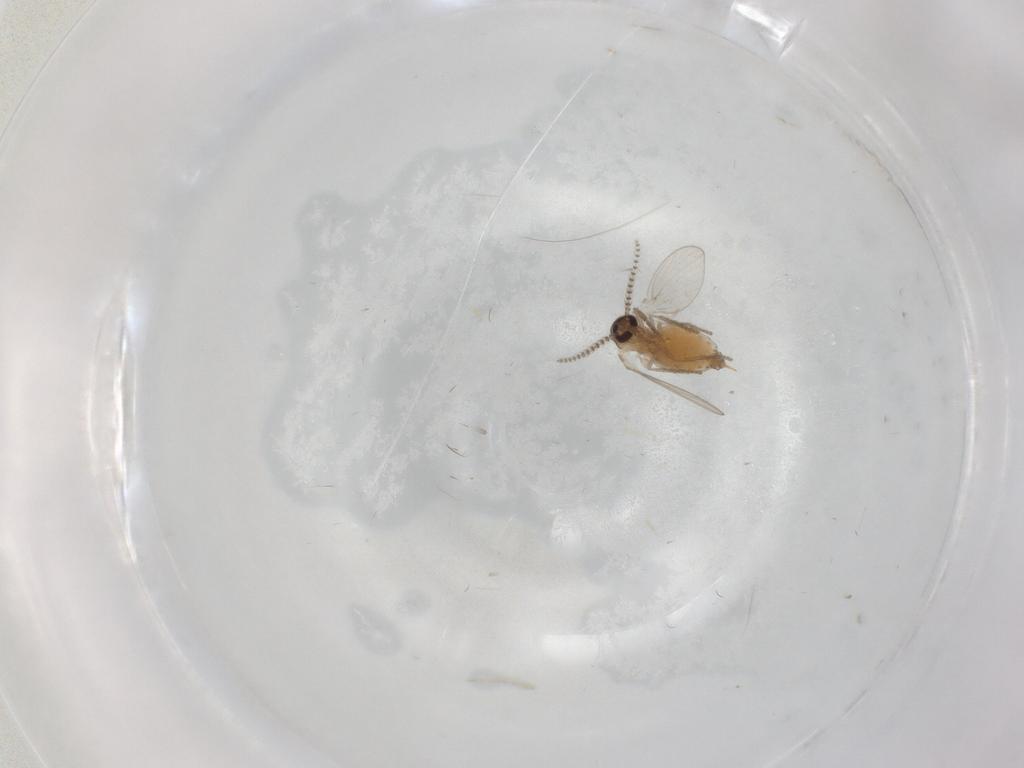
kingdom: Animalia
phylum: Arthropoda
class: Insecta
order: Diptera
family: Psychodidae
